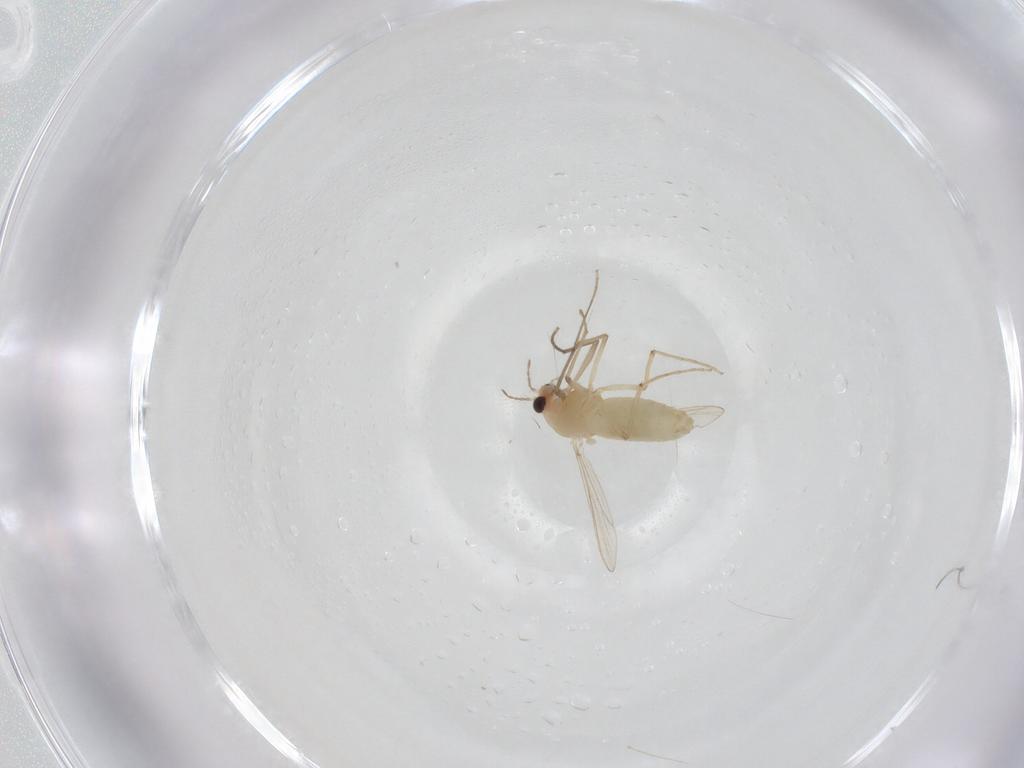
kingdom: Animalia
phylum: Arthropoda
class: Insecta
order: Diptera
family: Chironomidae
